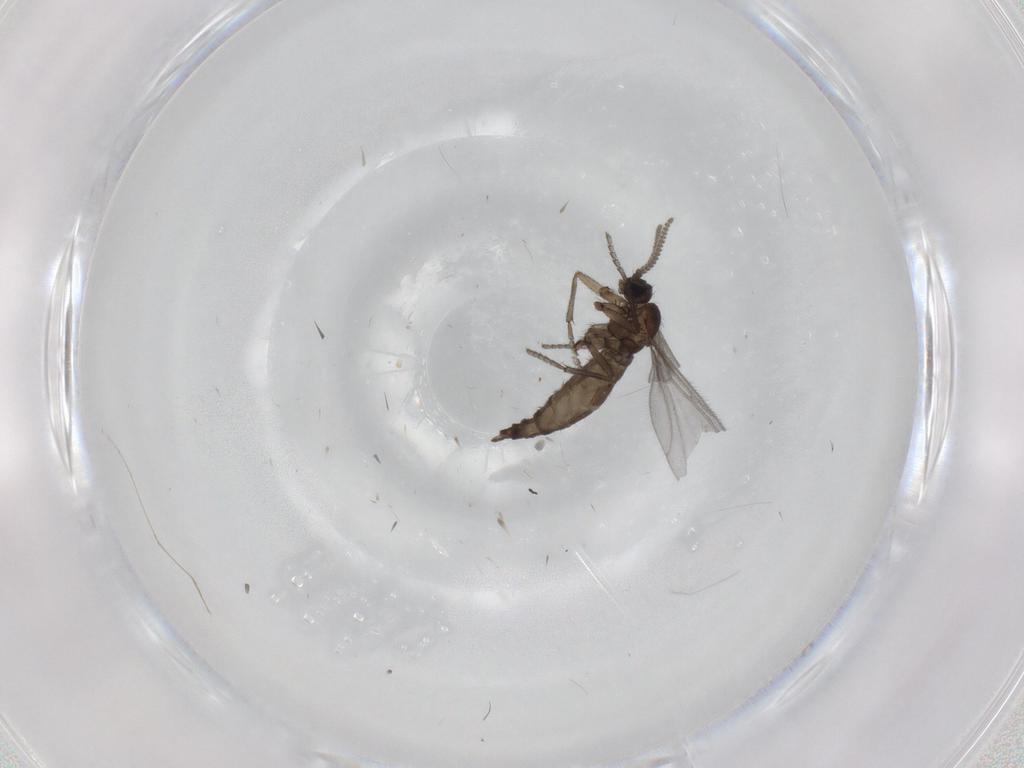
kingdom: Animalia
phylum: Arthropoda
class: Insecta
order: Diptera
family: Sciaridae
